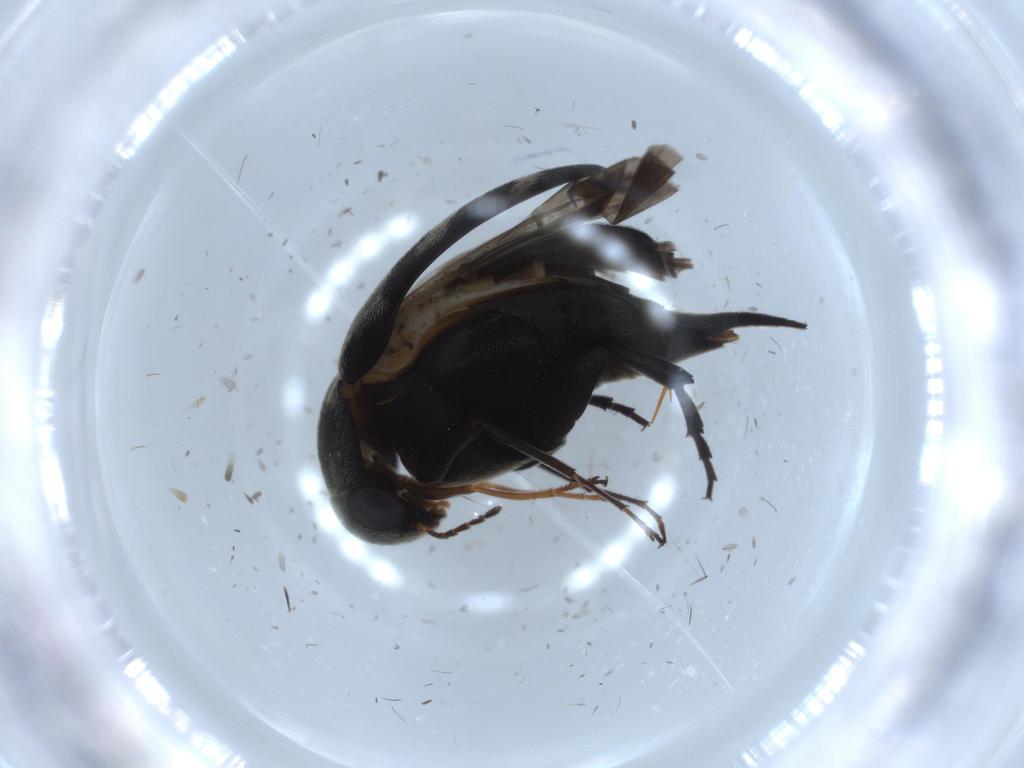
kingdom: Animalia
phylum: Arthropoda
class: Insecta
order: Coleoptera
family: Mordellidae
